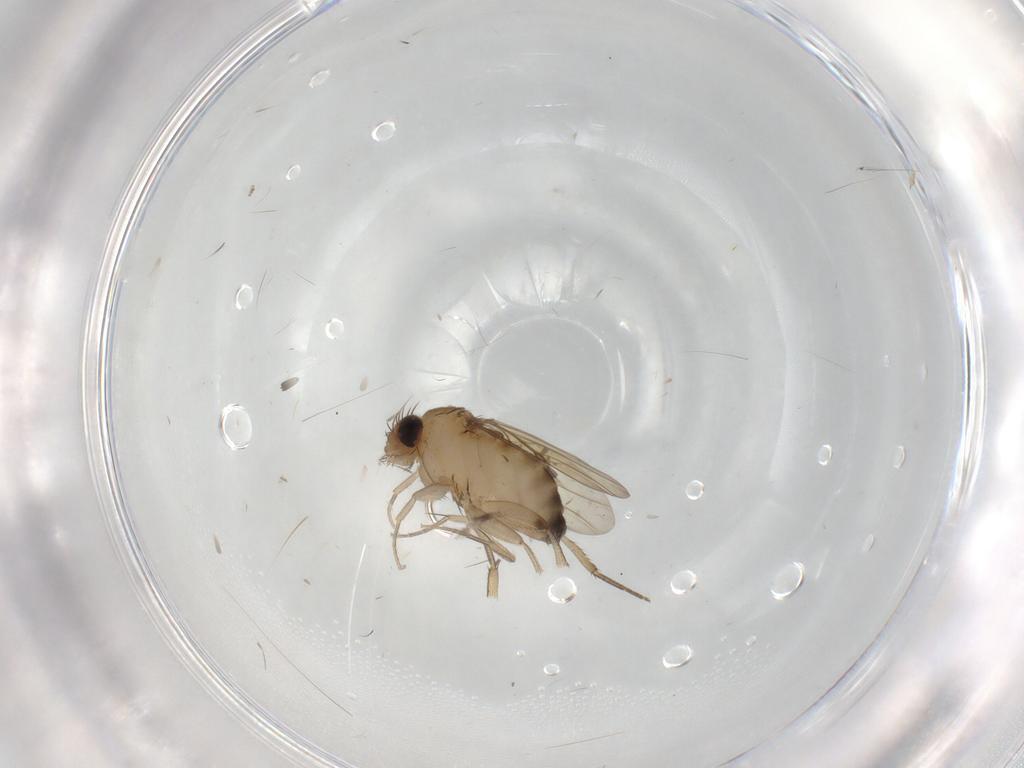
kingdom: Animalia
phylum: Arthropoda
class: Insecta
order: Diptera
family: Phoridae
